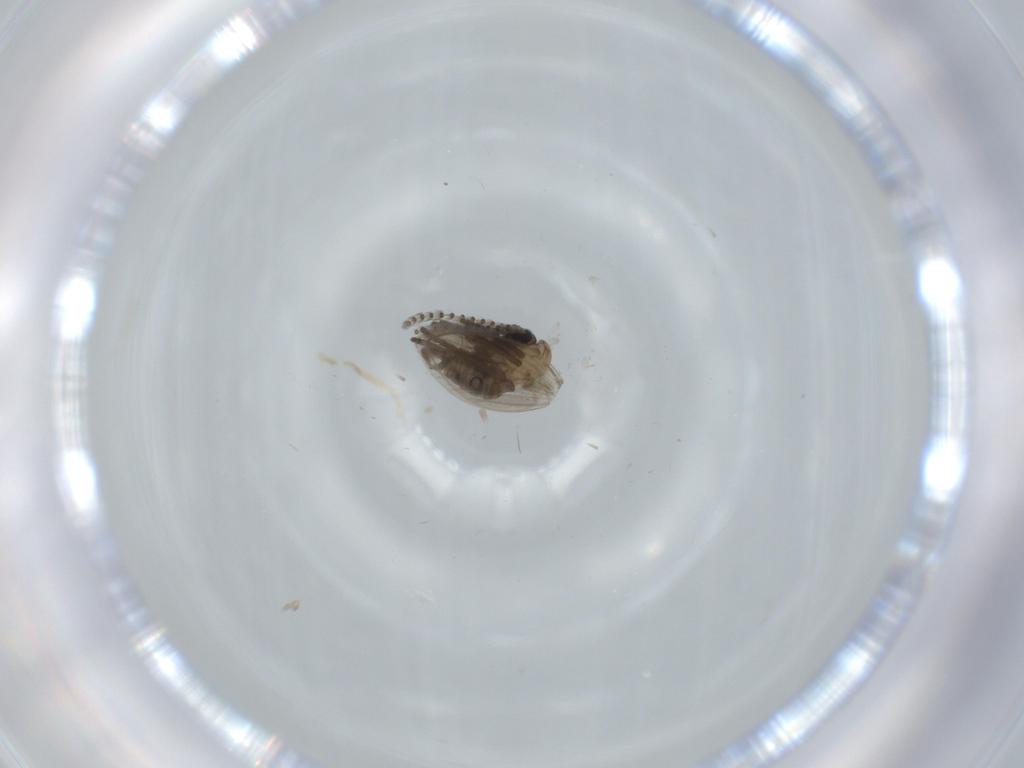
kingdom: Animalia
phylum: Arthropoda
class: Insecta
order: Diptera
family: Psychodidae
